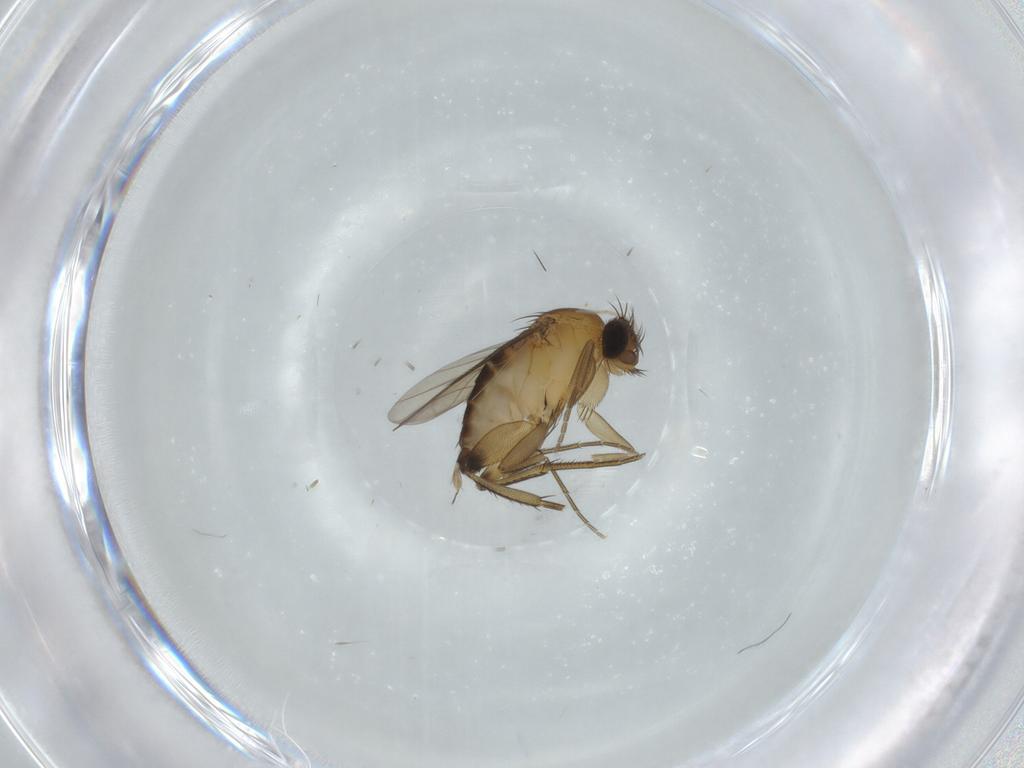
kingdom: Animalia
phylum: Arthropoda
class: Insecta
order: Diptera
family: Phoridae
